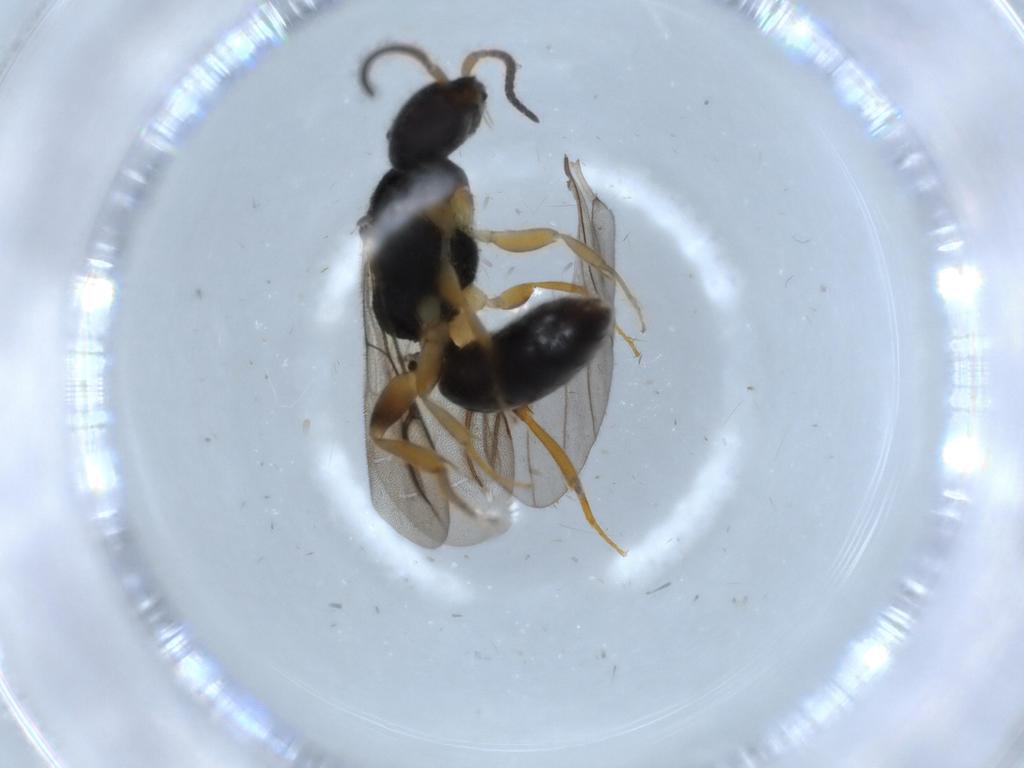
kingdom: Animalia
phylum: Arthropoda
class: Insecta
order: Hymenoptera
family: Bethylidae
